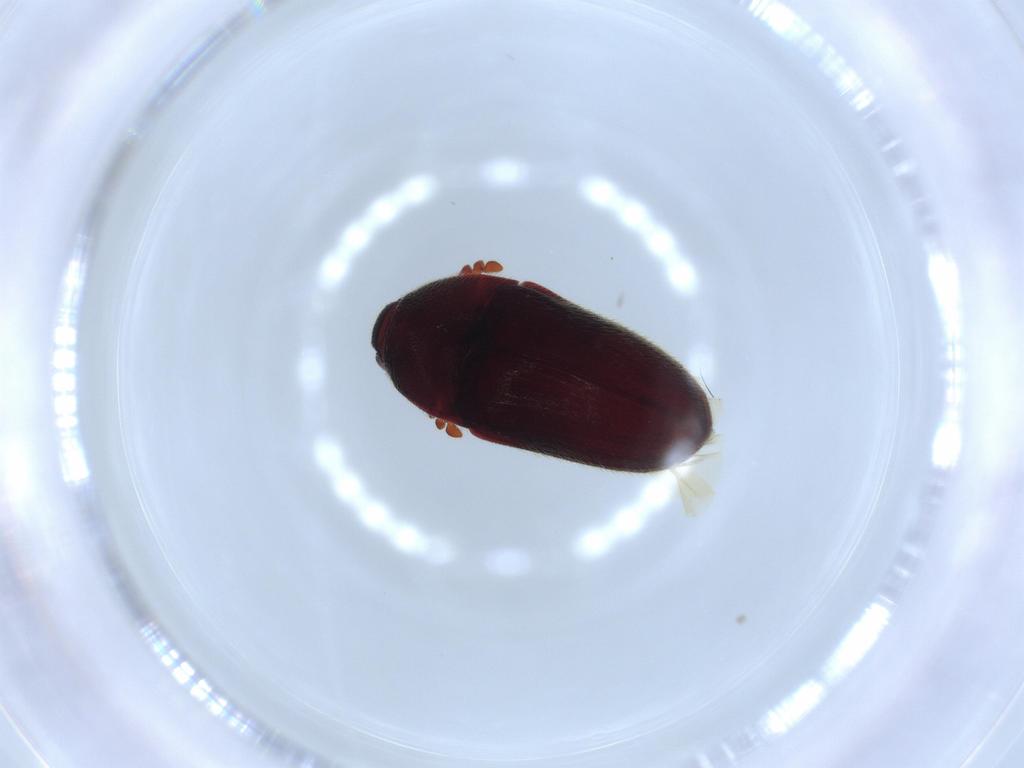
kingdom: Animalia
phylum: Arthropoda
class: Insecta
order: Coleoptera
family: Throscidae
